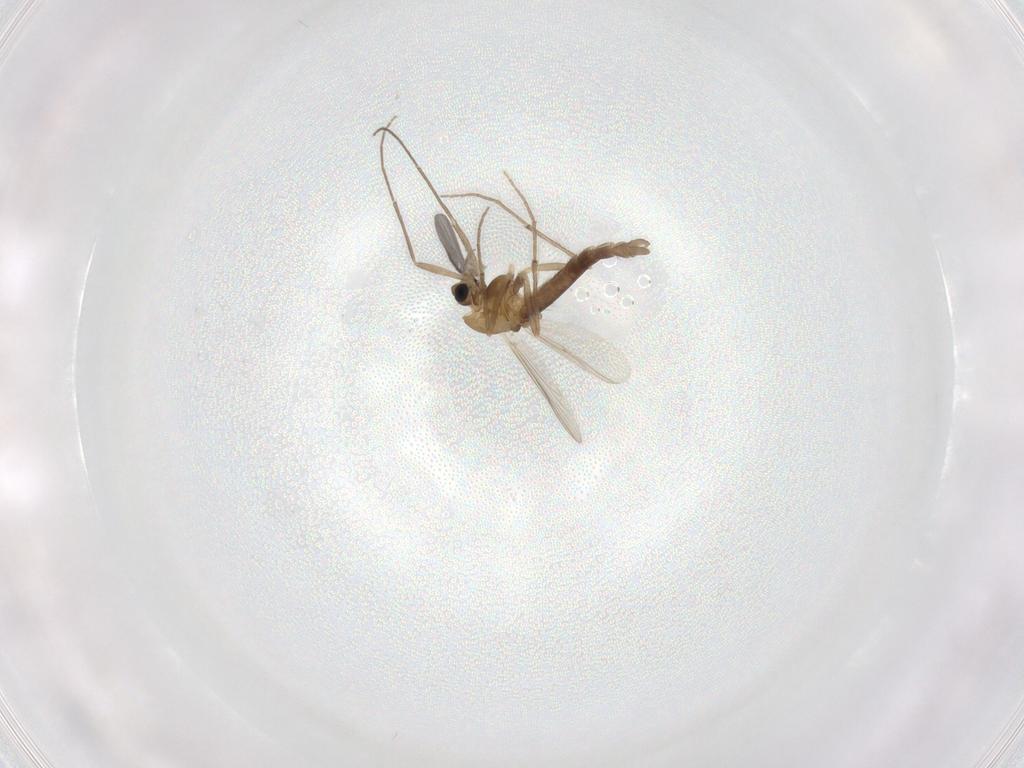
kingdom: Animalia
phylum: Arthropoda
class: Insecta
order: Diptera
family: Chironomidae
